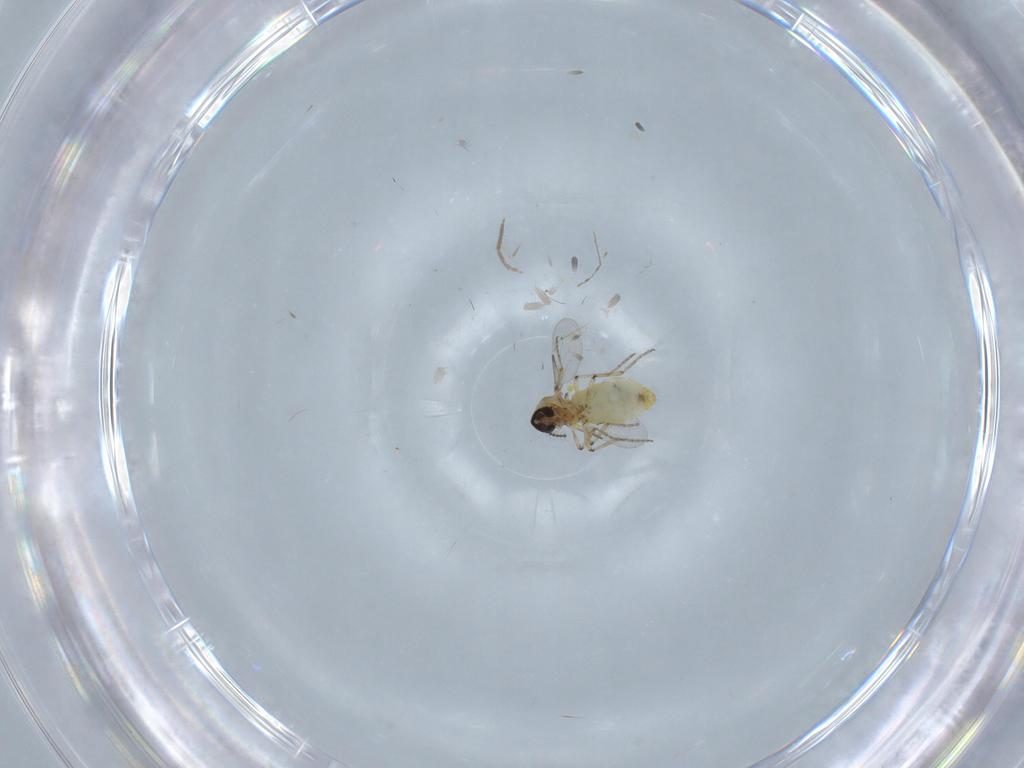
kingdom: Animalia
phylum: Arthropoda
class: Insecta
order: Diptera
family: Ceratopogonidae
